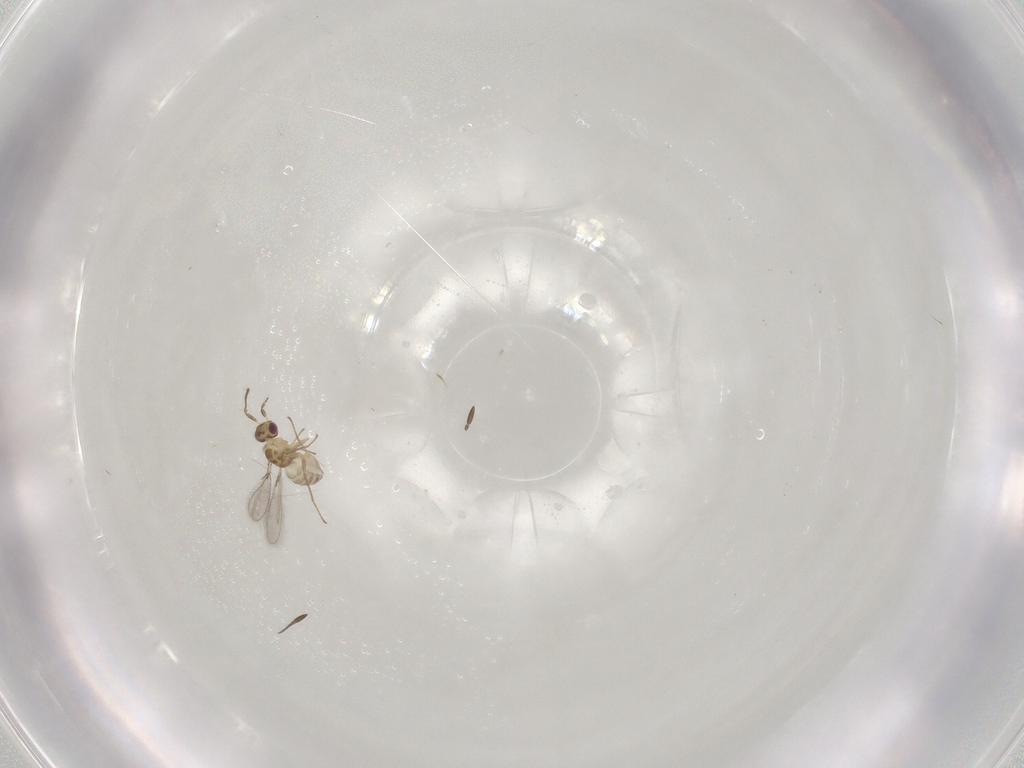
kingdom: Animalia
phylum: Arthropoda
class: Insecta
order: Hymenoptera
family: Mymaridae
